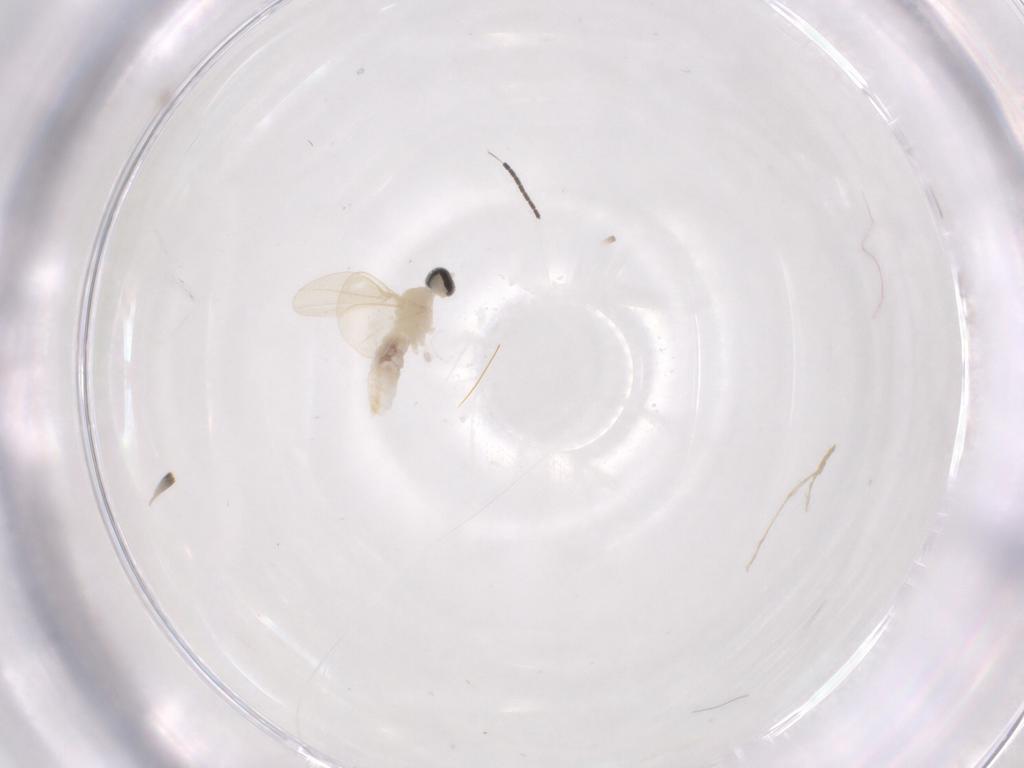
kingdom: Animalia
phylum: Arthropoda
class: Insecta
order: Diptera
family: Cecidomyiidae
